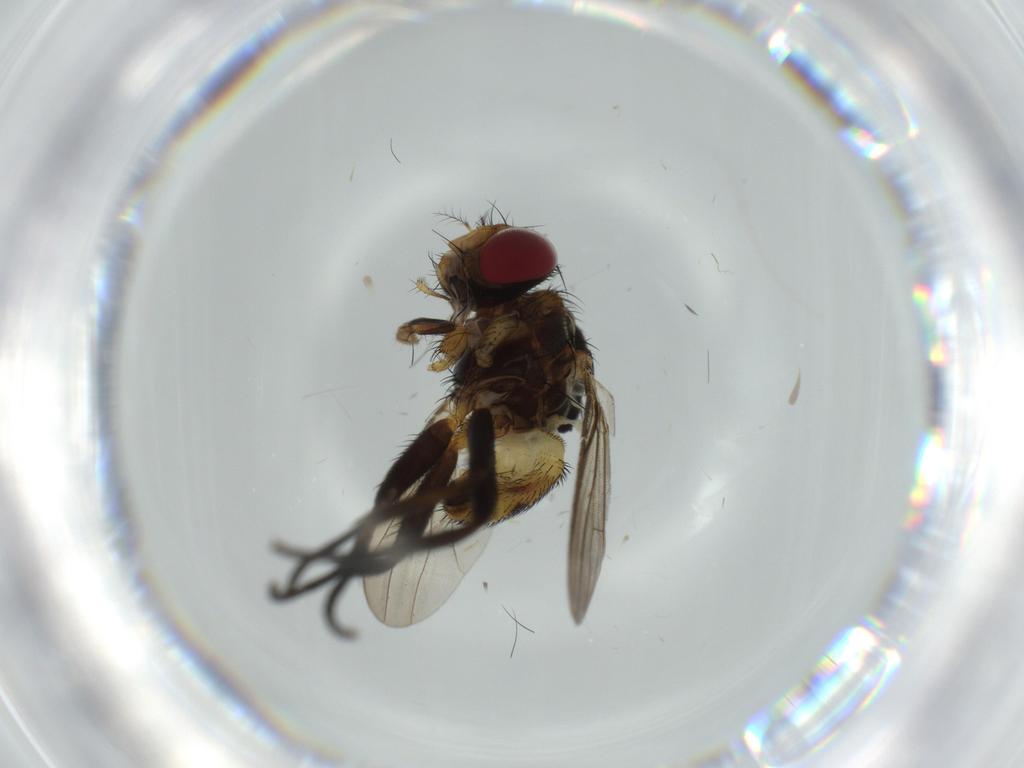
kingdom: Animalia
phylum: Arthropoda
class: Insecta
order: Diptera
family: Anthomyiidae
